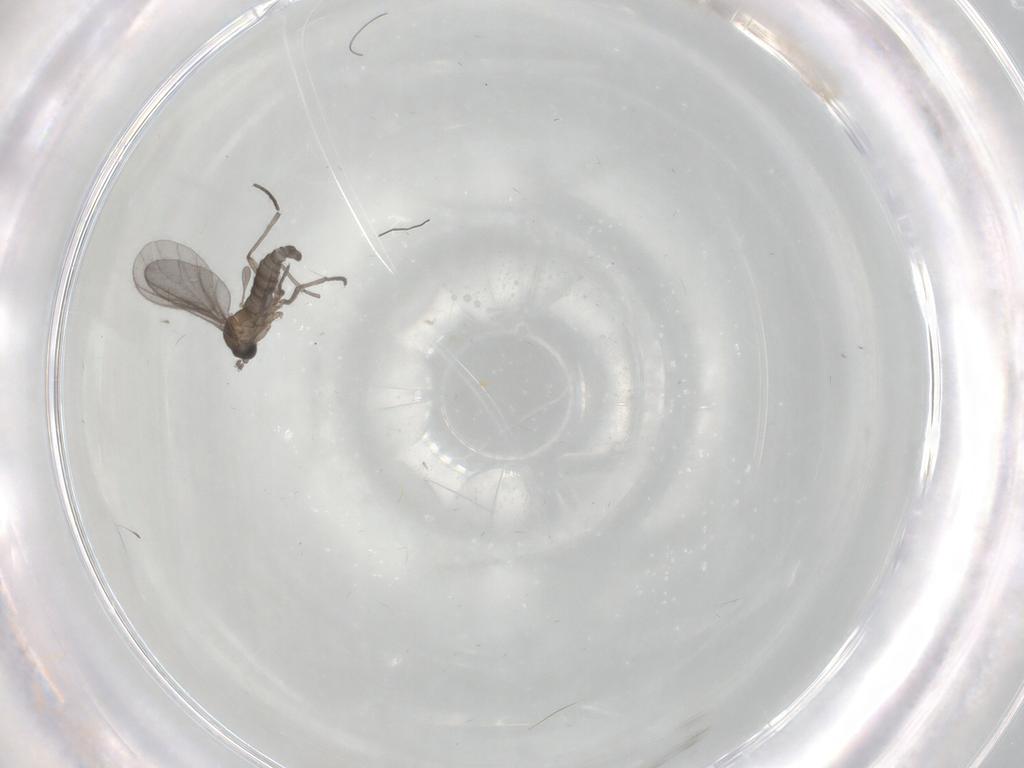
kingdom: Animalia
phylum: Arthropoda
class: Insecta
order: Diptera
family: Sciaridae
